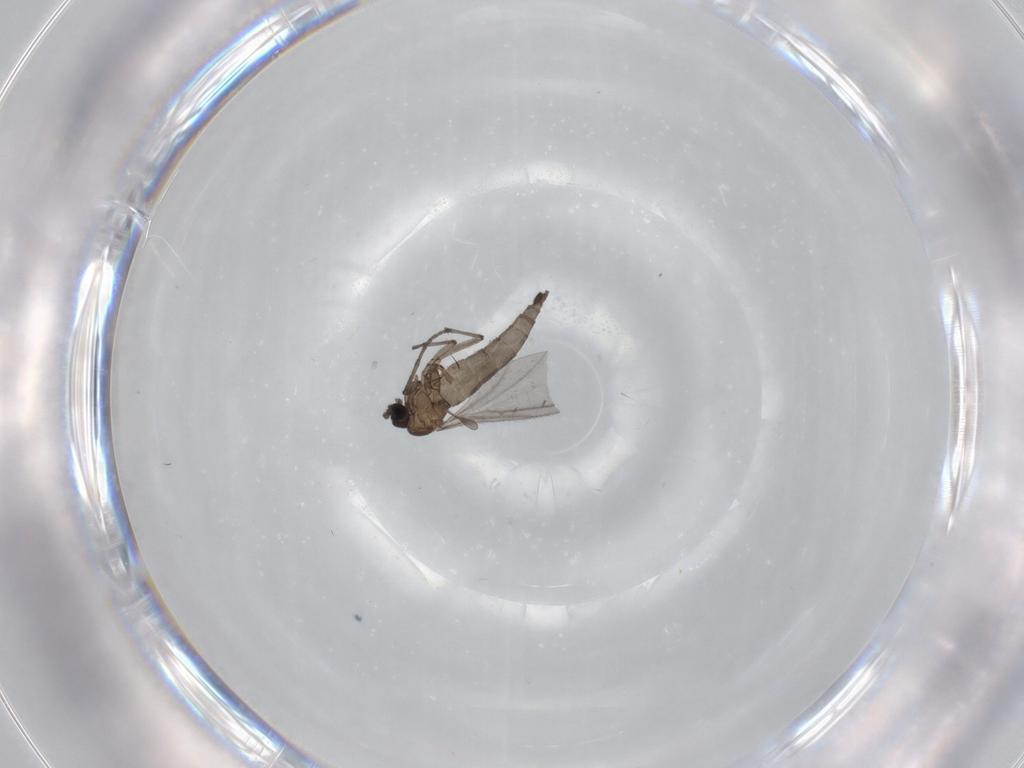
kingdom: Animalia
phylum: Arthropoda
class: Insecta
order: Diptera
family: Sciaridae
